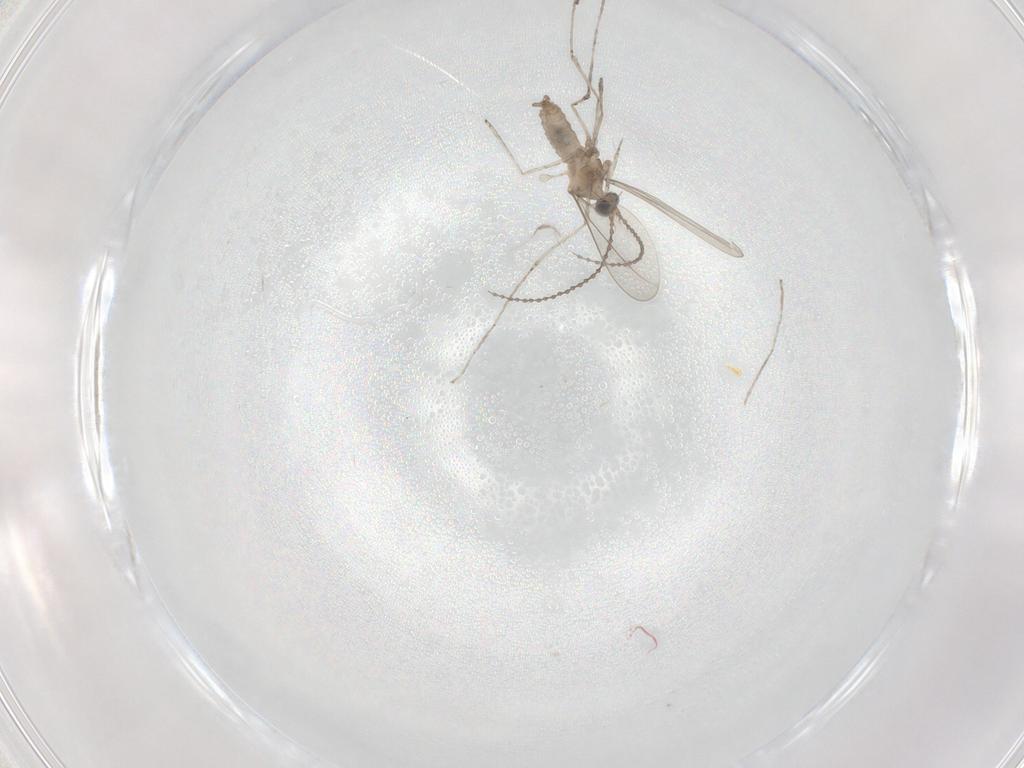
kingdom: Animalia
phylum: Arthropoda
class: Insecta
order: Diptera
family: Cecidomyiidae
